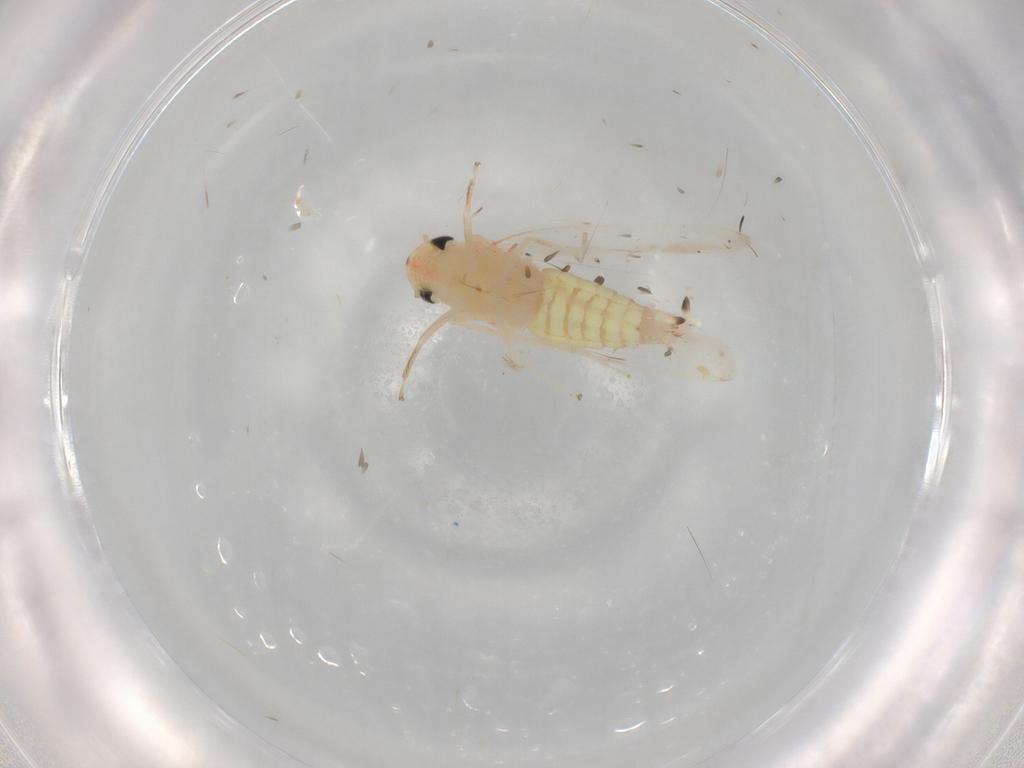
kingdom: Animalia
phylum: Arthropoda
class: Insecta
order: Hemiptera
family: Cicadellidae
